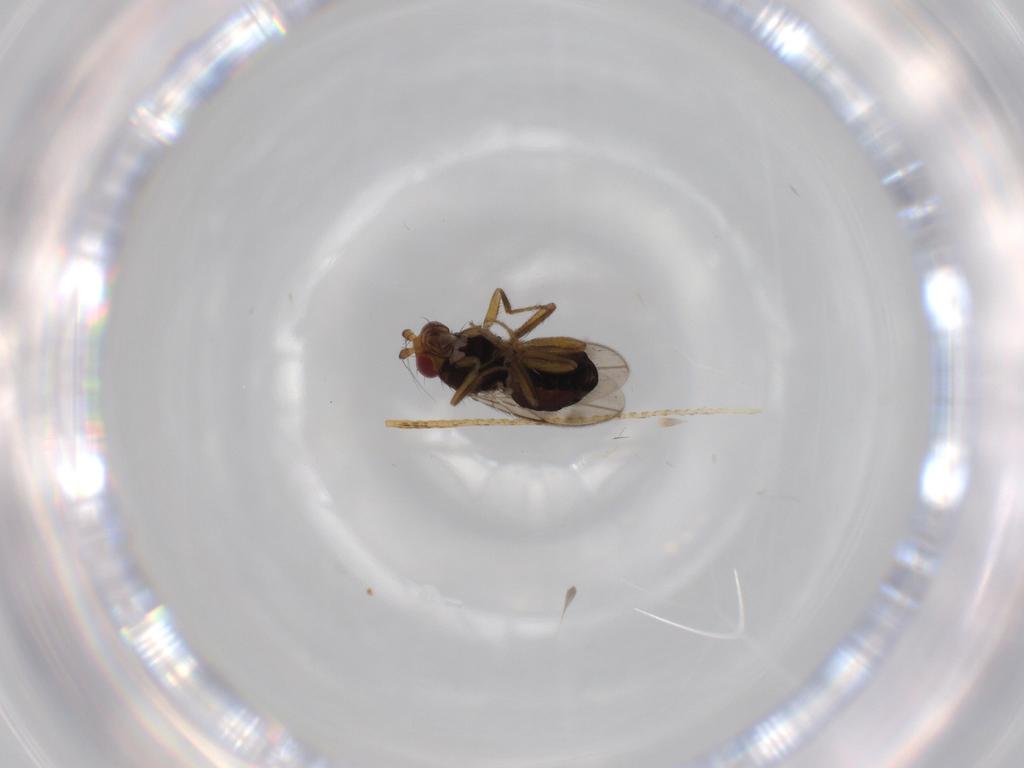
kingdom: Animalia
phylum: Arthropoda
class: Insecta
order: Diptera
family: Sphaeroceridae
